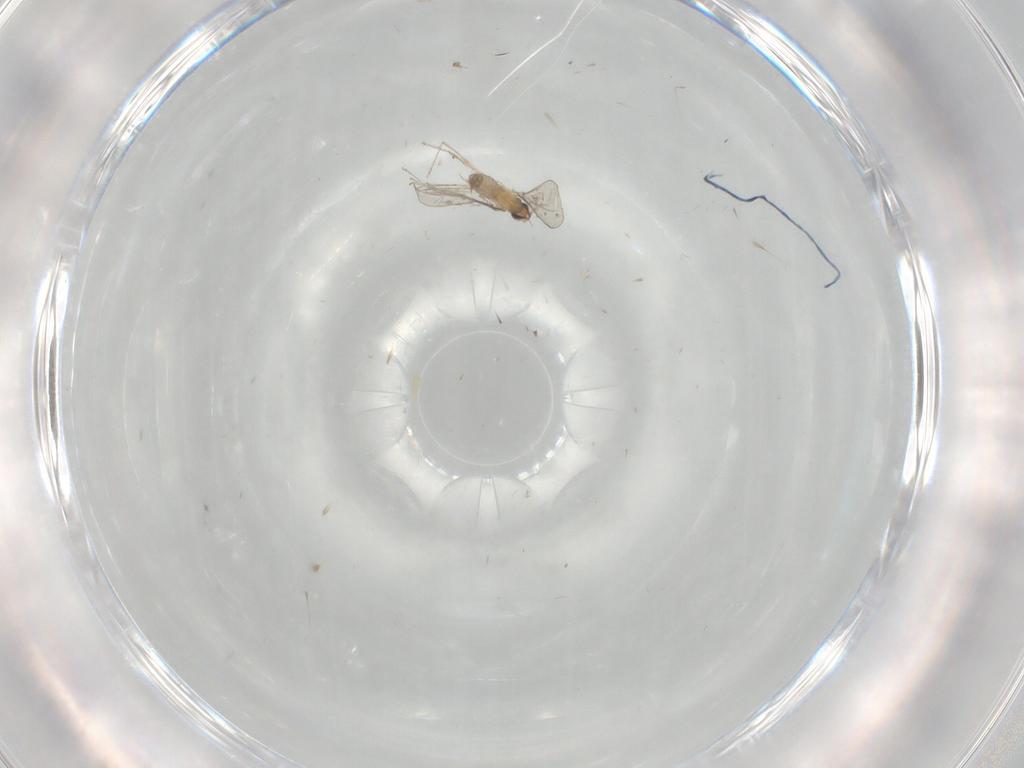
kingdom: Animalia
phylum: Arthropoda
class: Insecta
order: Diptera
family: Cecidomyiidae
